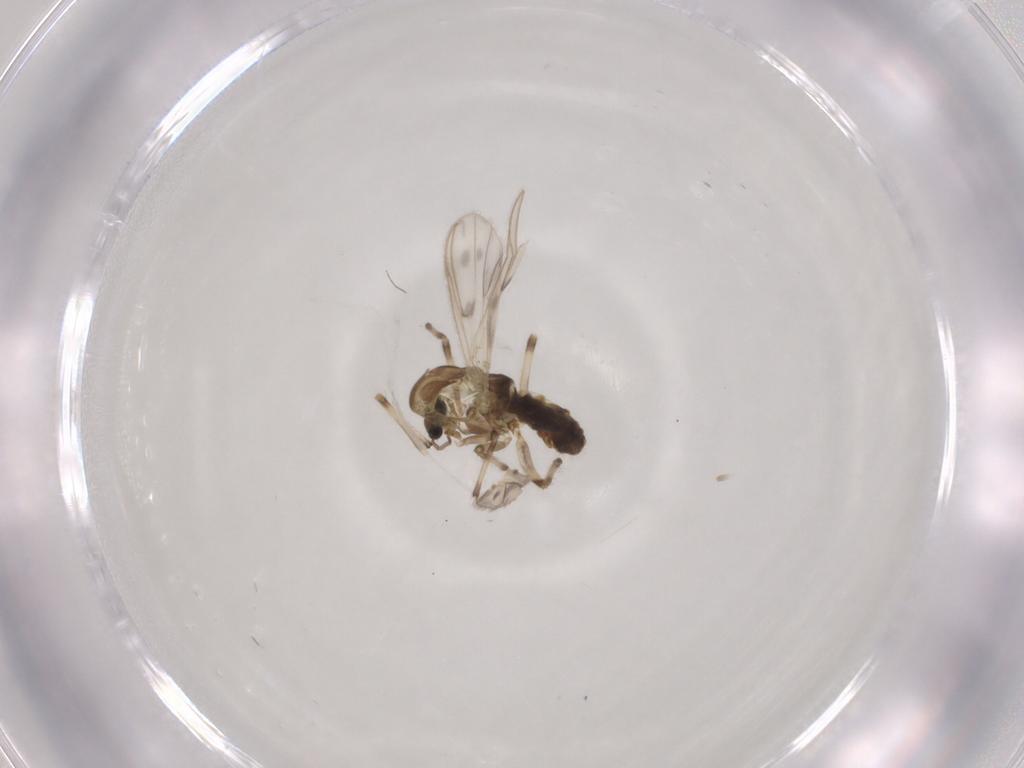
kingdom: Animalia
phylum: Arthropoda
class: Insecta
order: Diptera
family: Chironomidae
